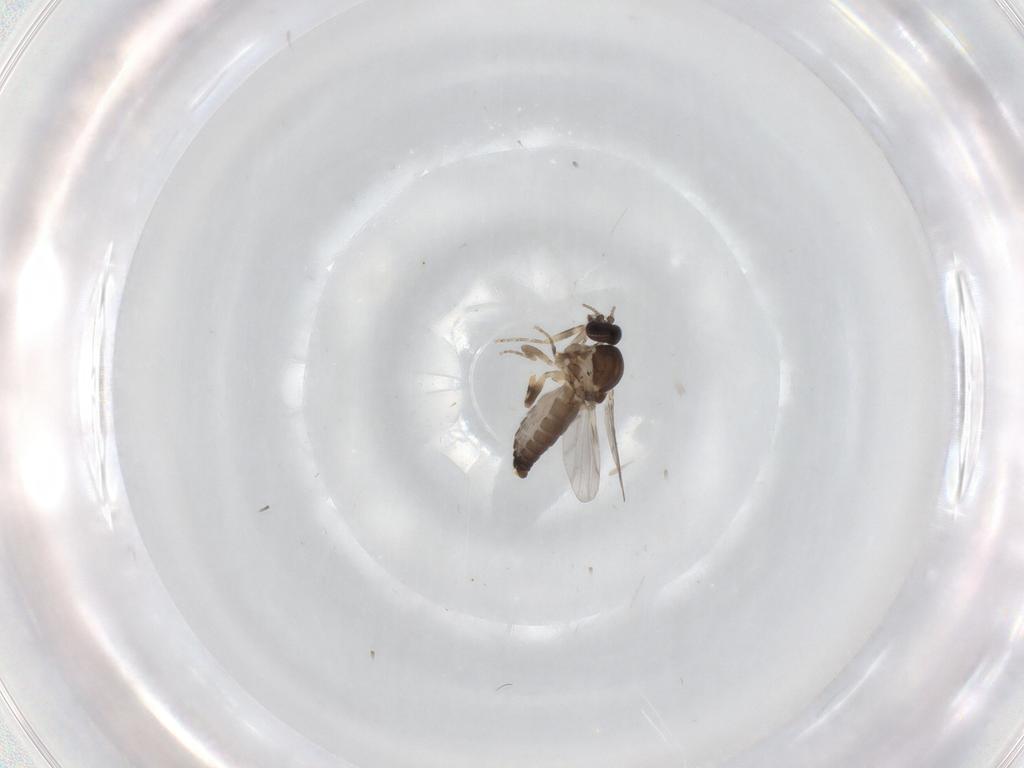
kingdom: Animalia
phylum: Arthropoda
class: Insecta
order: Diptera
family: Ceratopogonidae
